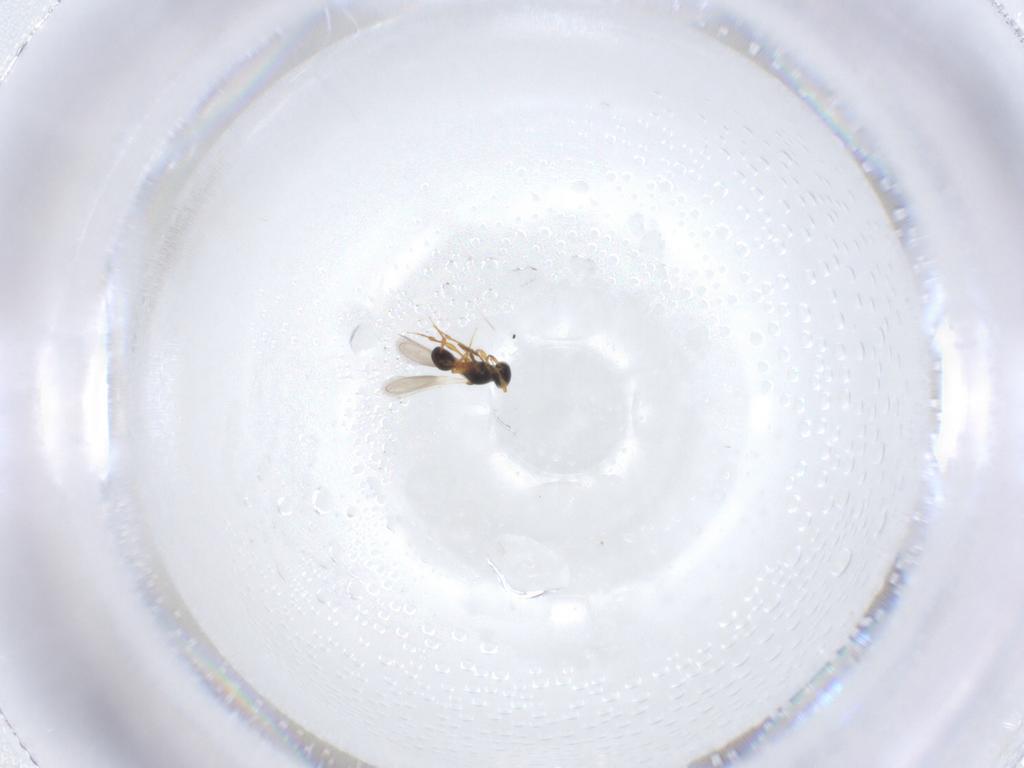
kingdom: Animalia
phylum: Arthropoda
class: Insecta
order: Hymenoptera
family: Platygastridae
